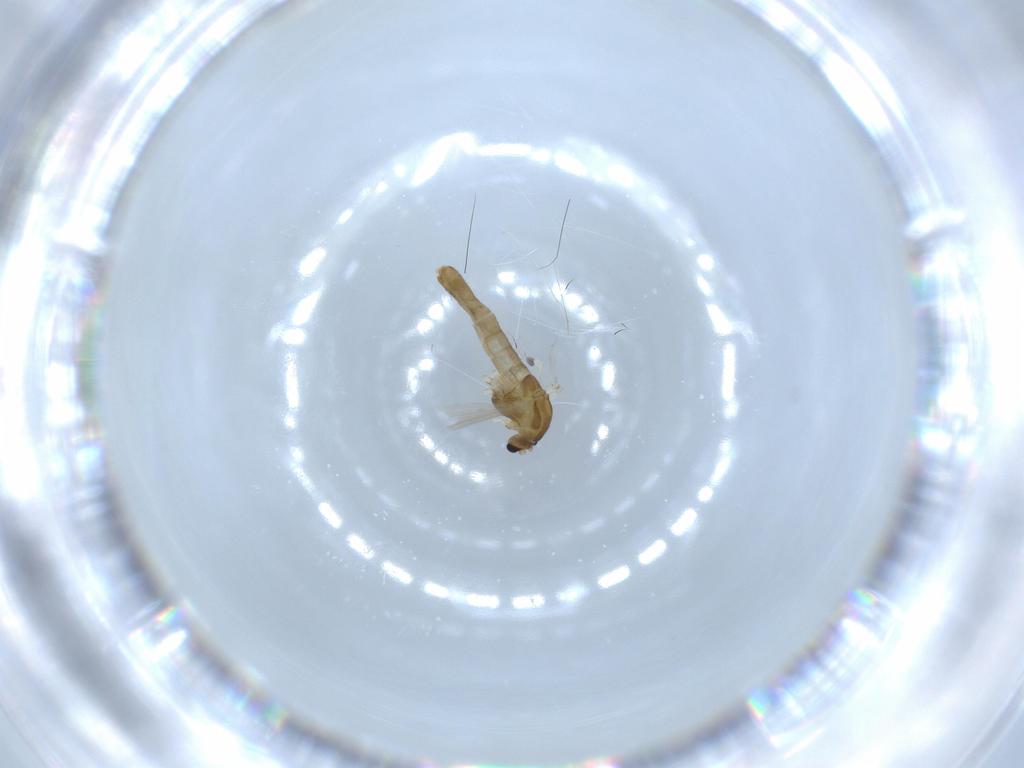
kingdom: Animalia
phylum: Arthropoda
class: Insecta
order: Diptera
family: Chironomidae
